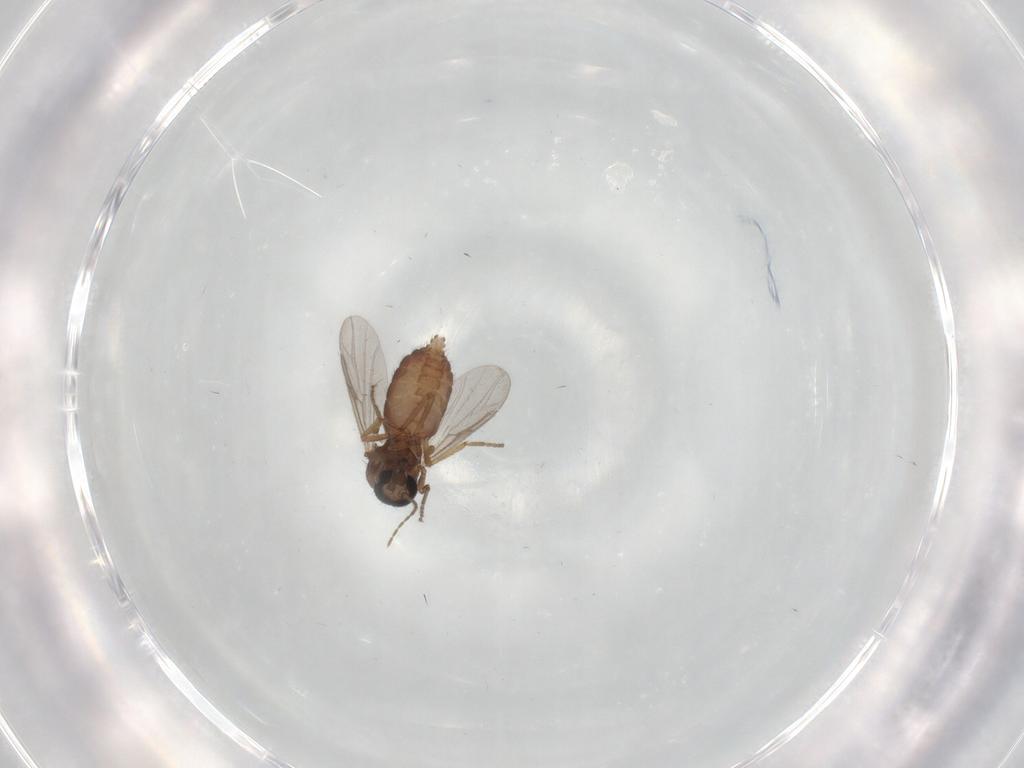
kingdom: Animalia
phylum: Arthropoda
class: Insecta
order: Diptera
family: Ceratopogonidae
